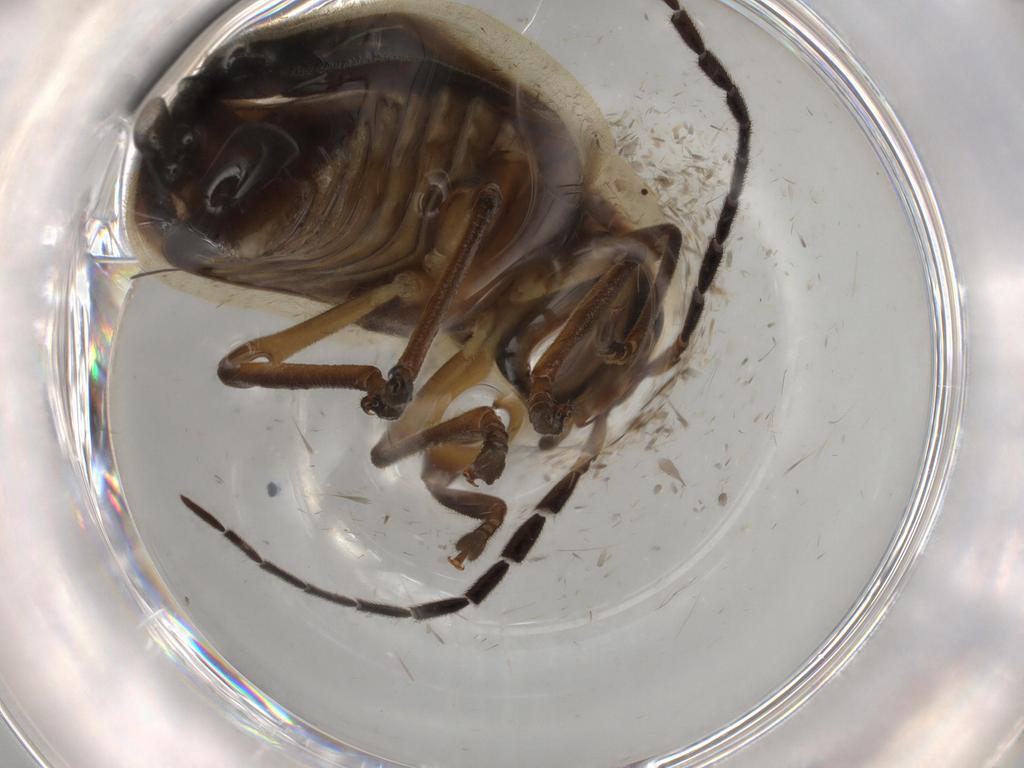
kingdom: Animalia
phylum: Arthropoda
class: Insecta
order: Coleoptera
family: Lampyridae
